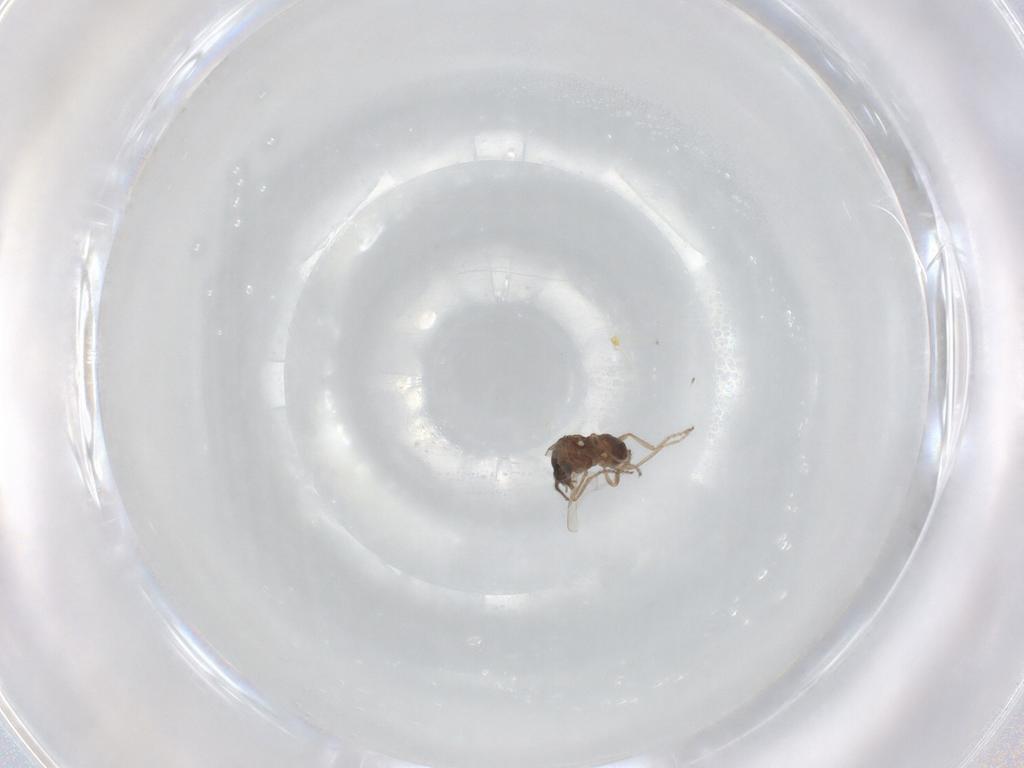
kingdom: Animalia
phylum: Arthropoda
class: Insecta
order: Diptera
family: Ceratopogonidae
